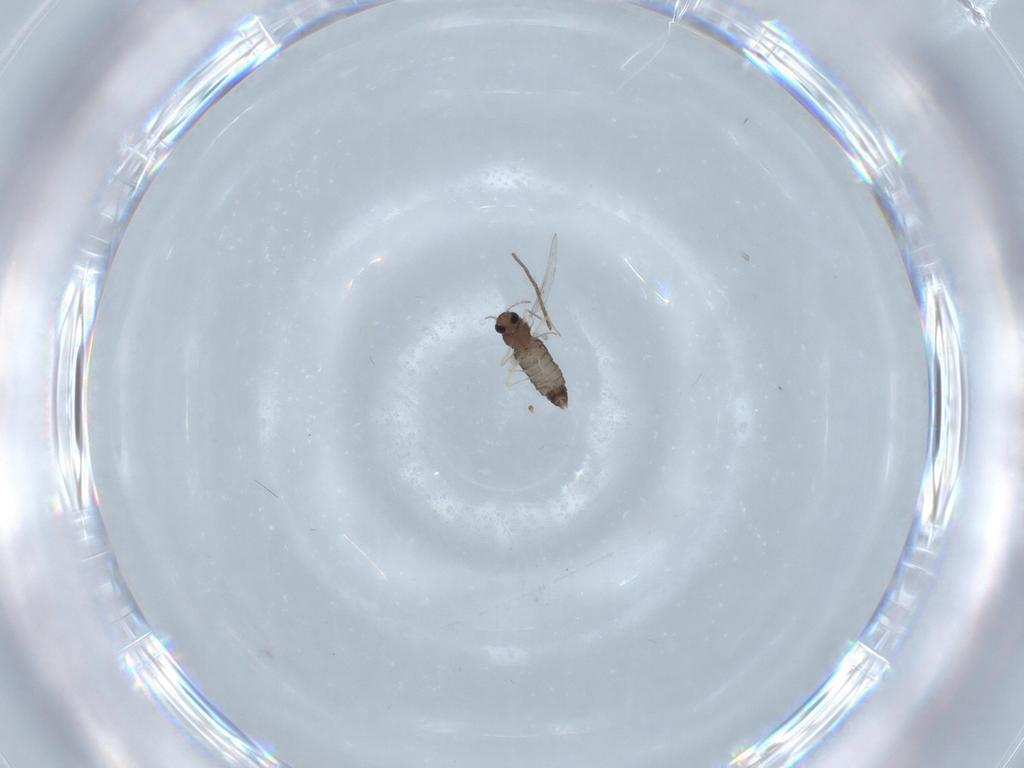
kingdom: Animalia
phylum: Arthropoda
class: Insecta
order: Diptera
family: Chironomidae
